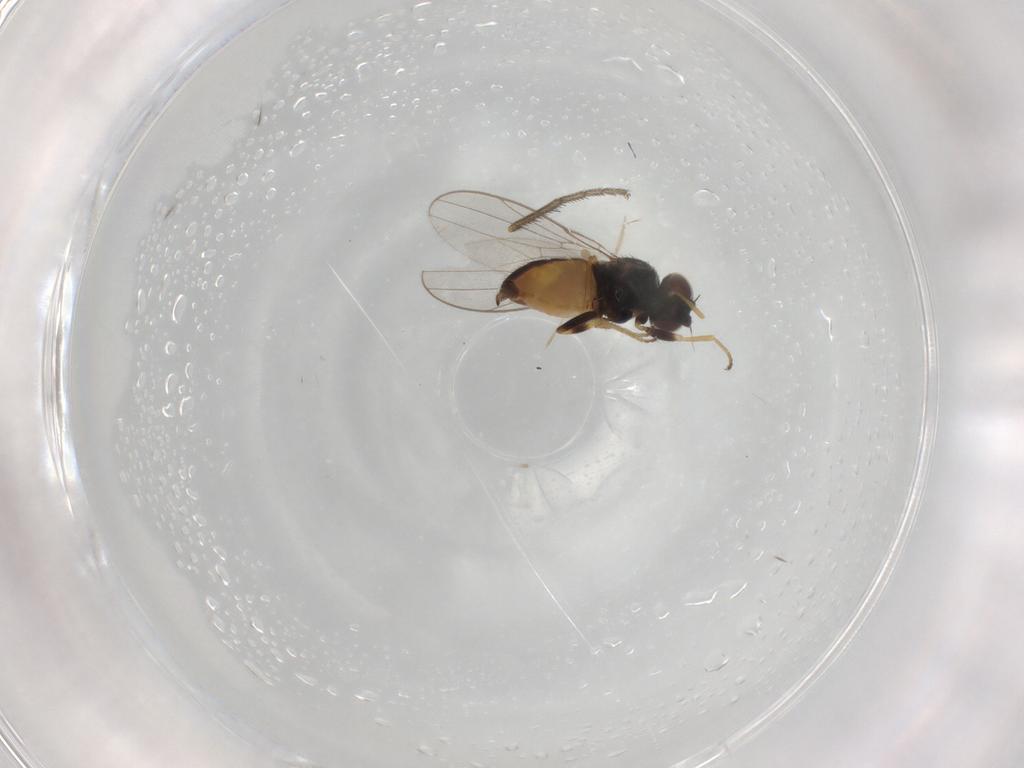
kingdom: Animalia
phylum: Arthropoda
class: Insecta
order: Diptera
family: Chloropidae
